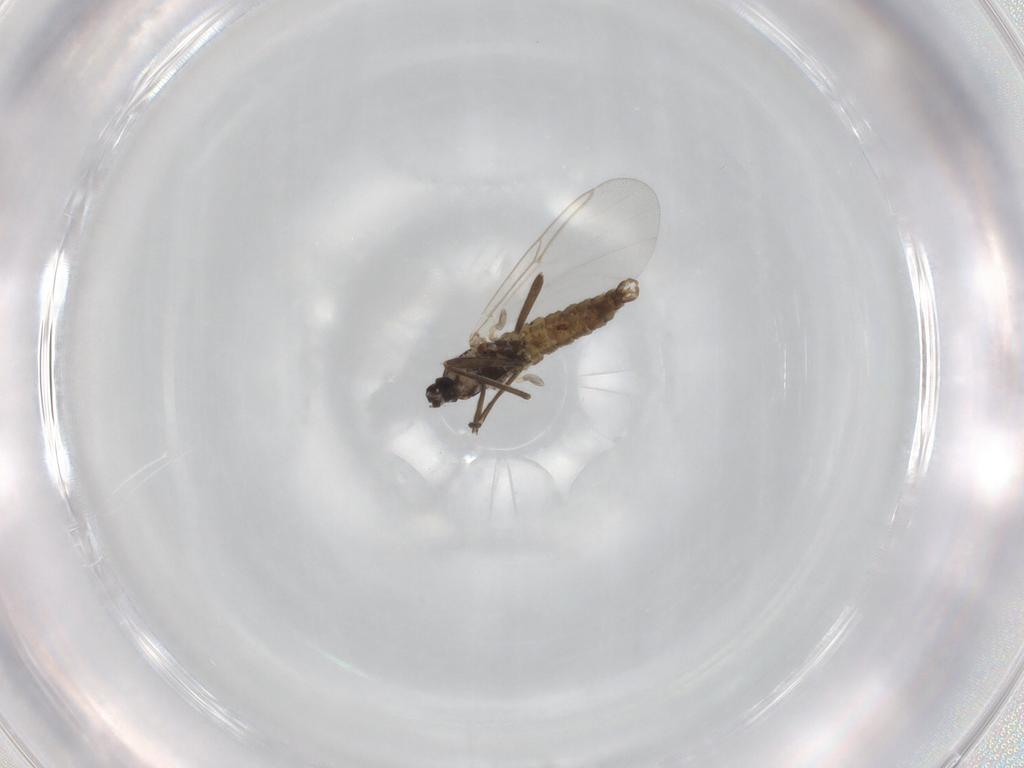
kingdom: Animalia
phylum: Arthropoda
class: Insecta
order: Diptera
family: Cecidomyiidae
